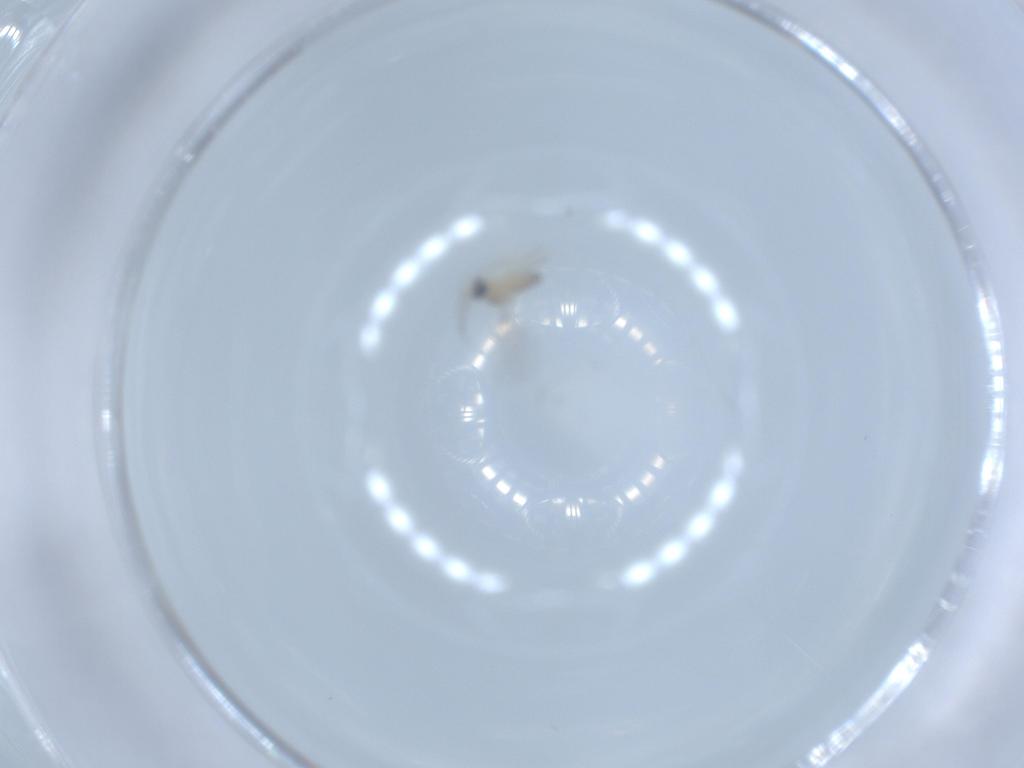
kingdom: Animalia
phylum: Arthropoda
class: Insecta
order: Diptera
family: Cecidomyiidae
